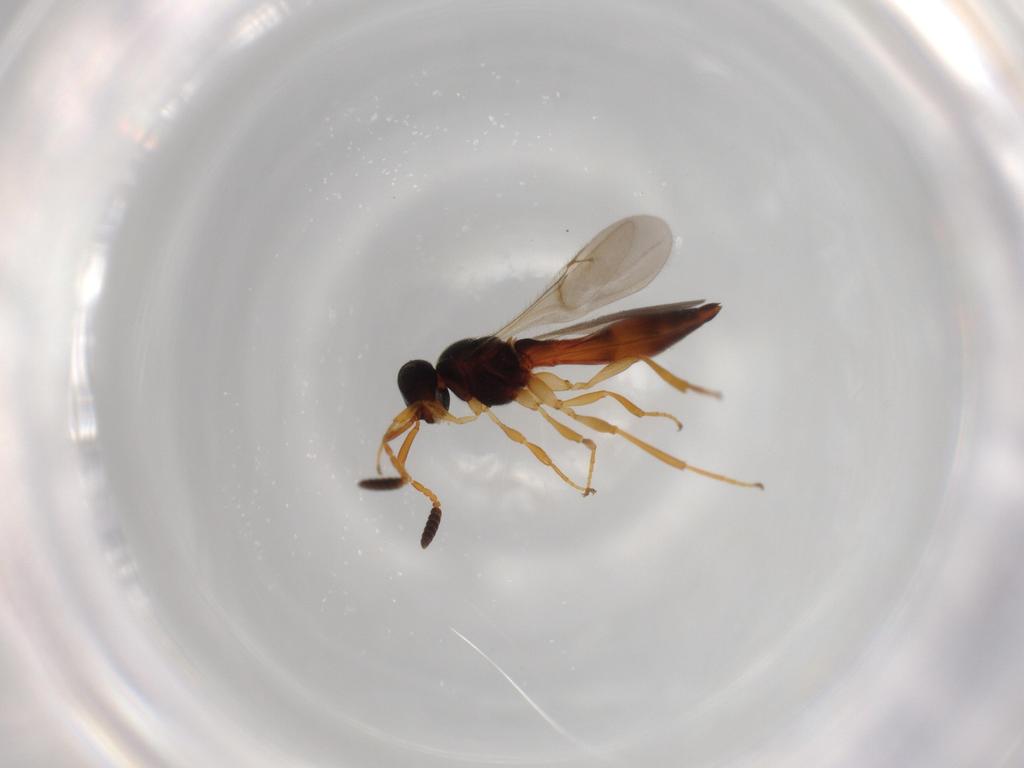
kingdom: Animalia
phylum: Arthropoda
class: Insecta
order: Hymenoptera
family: Scelionidae
